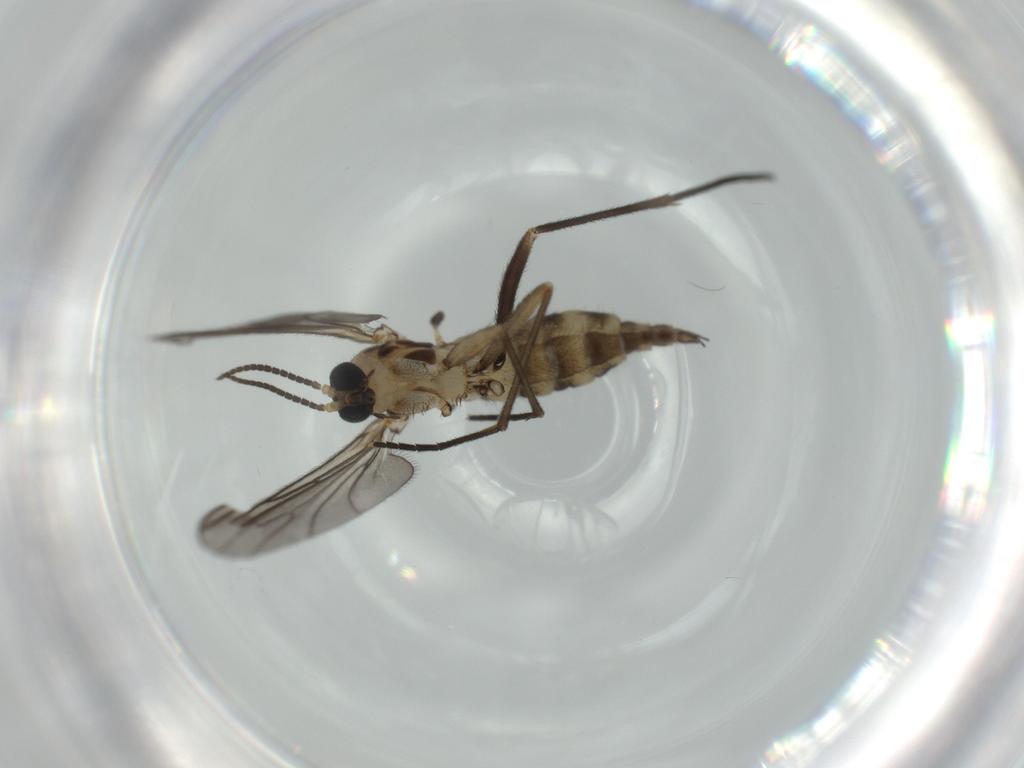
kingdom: Animalia
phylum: Arthropoda
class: Insecta
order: Diptera
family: Sciaridae
